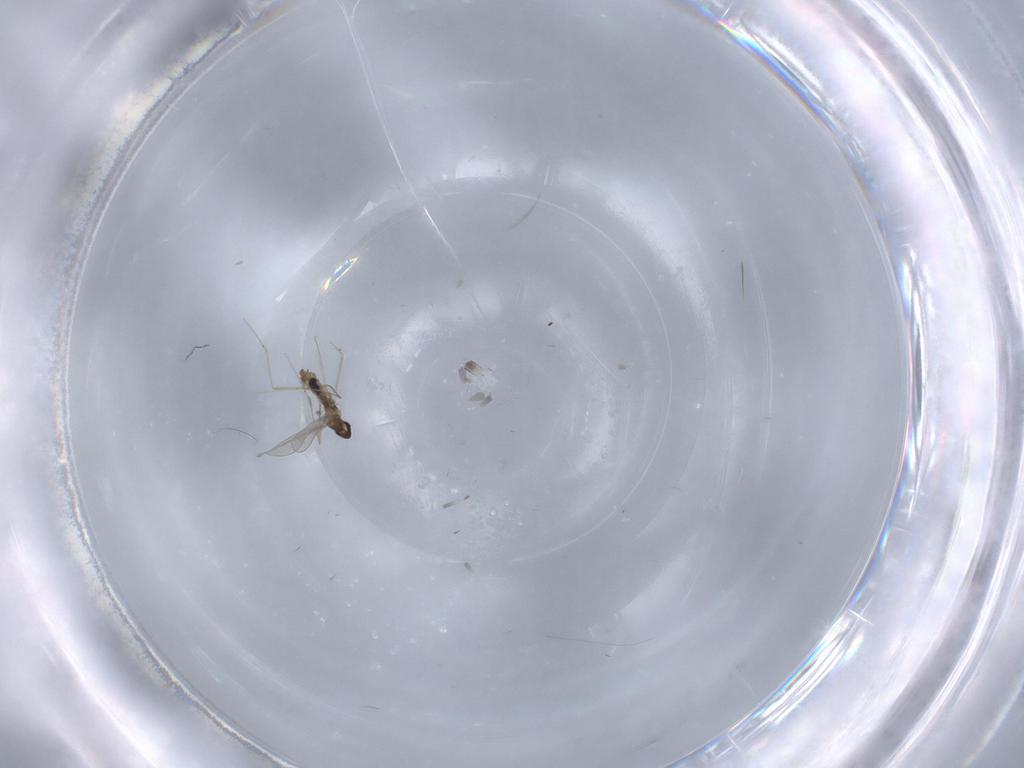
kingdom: Animalia
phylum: Arthropoda
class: Insecta
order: Diptera
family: Cecidomyiidae
